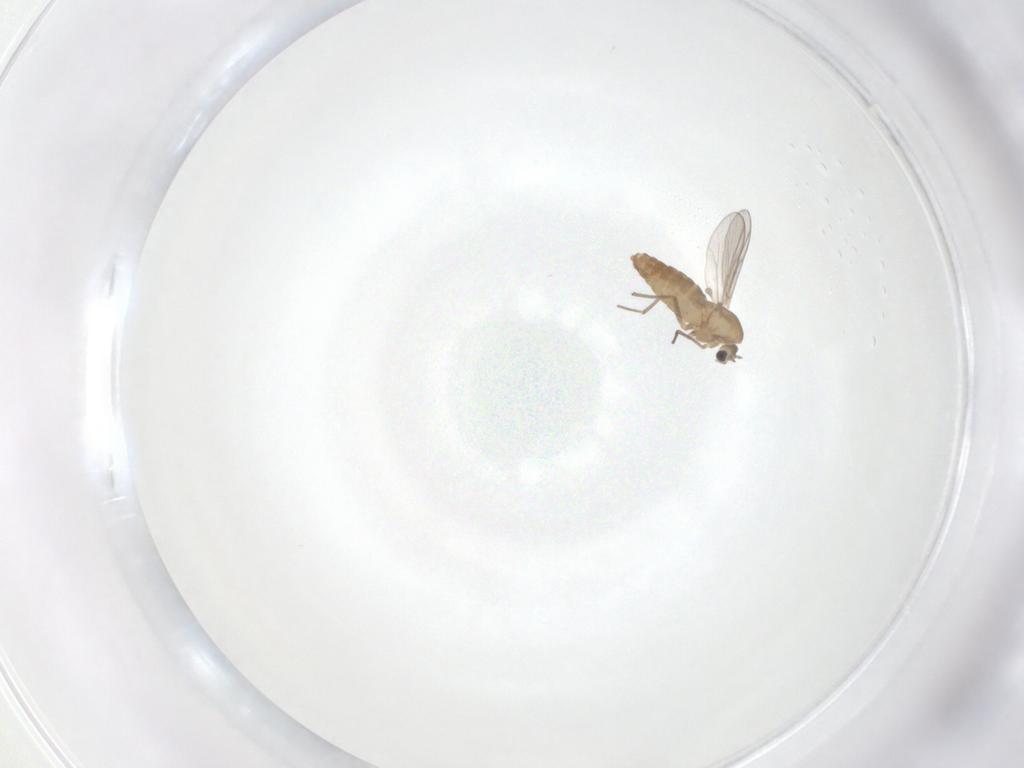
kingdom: Animalia
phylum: Arthropoda
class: Insecta
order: Diptera
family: Chironomidae
